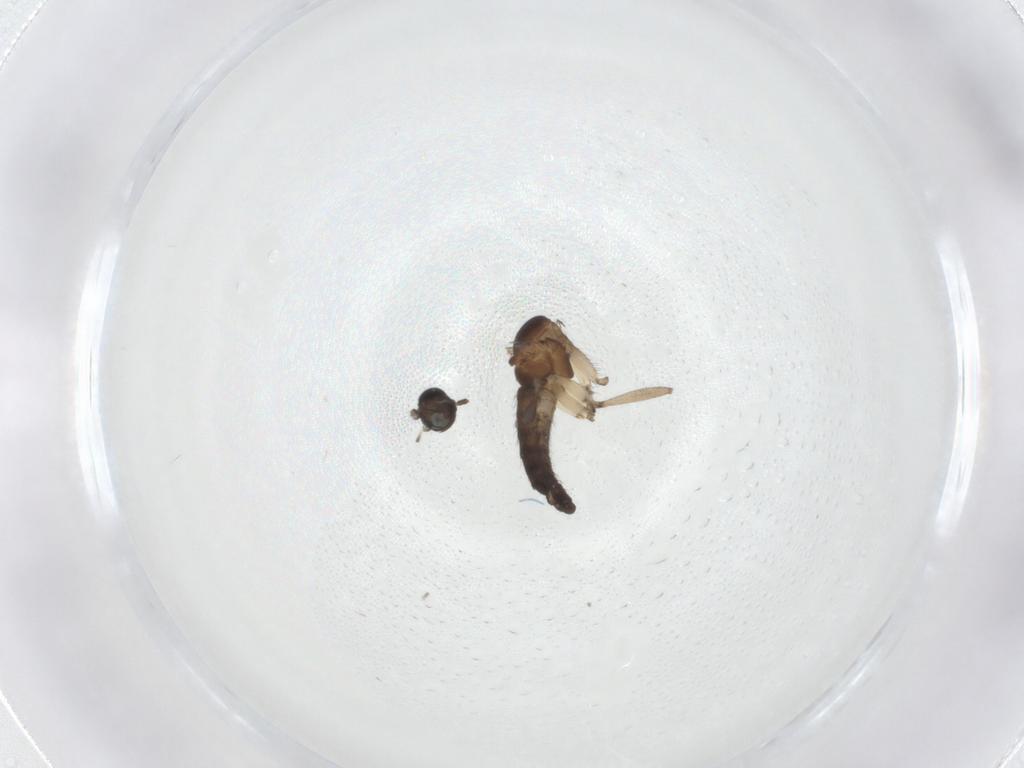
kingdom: Animalia
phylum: Arthropoda
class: Insecta
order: Diptera
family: Sciaridae
